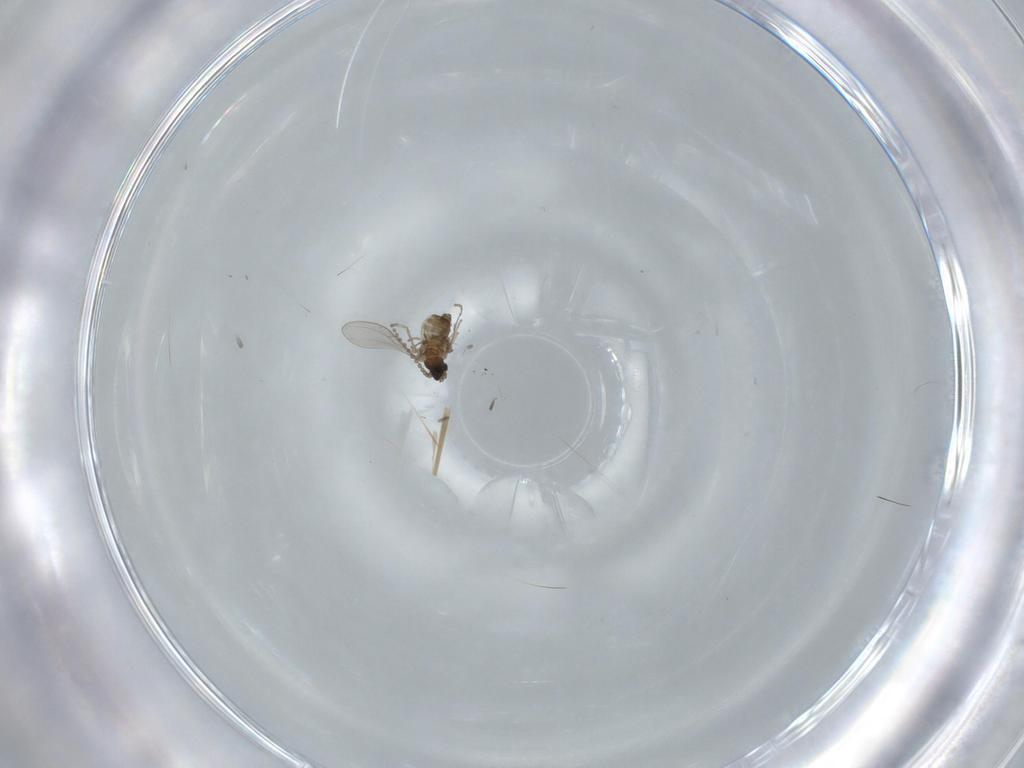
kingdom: Animalia
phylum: Arthropoda
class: Insecta
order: Diptera
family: Cecidomyiidae
